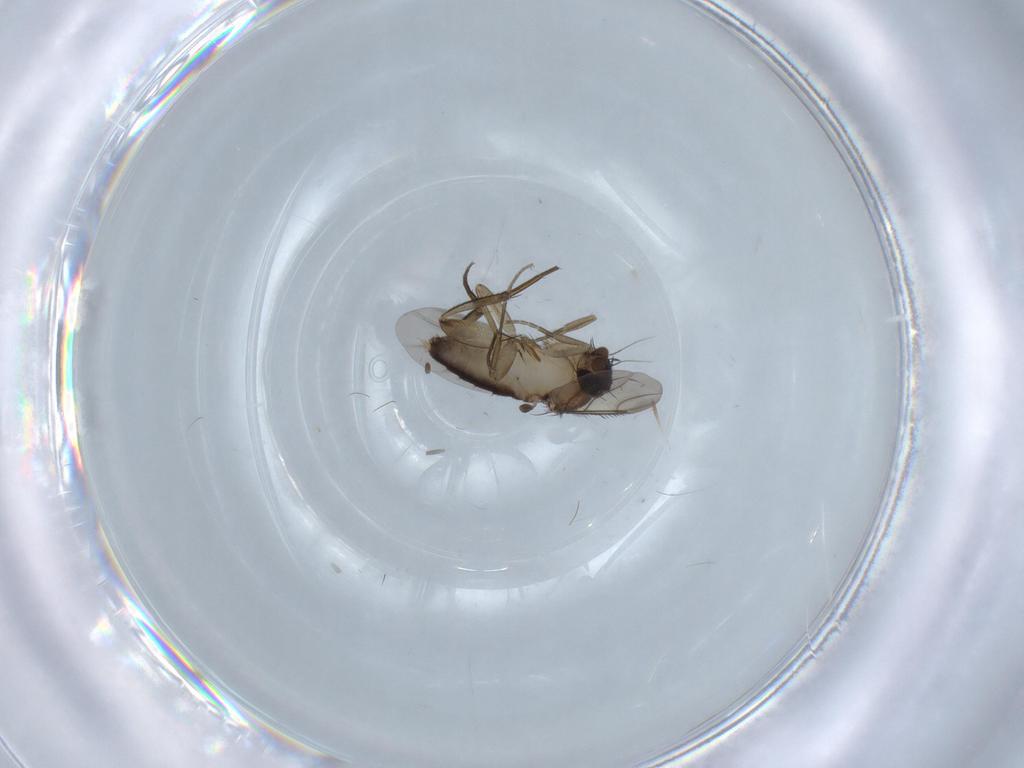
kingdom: Animalia
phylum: Arthropoda
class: Insecta
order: Diptera
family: Phoridae
